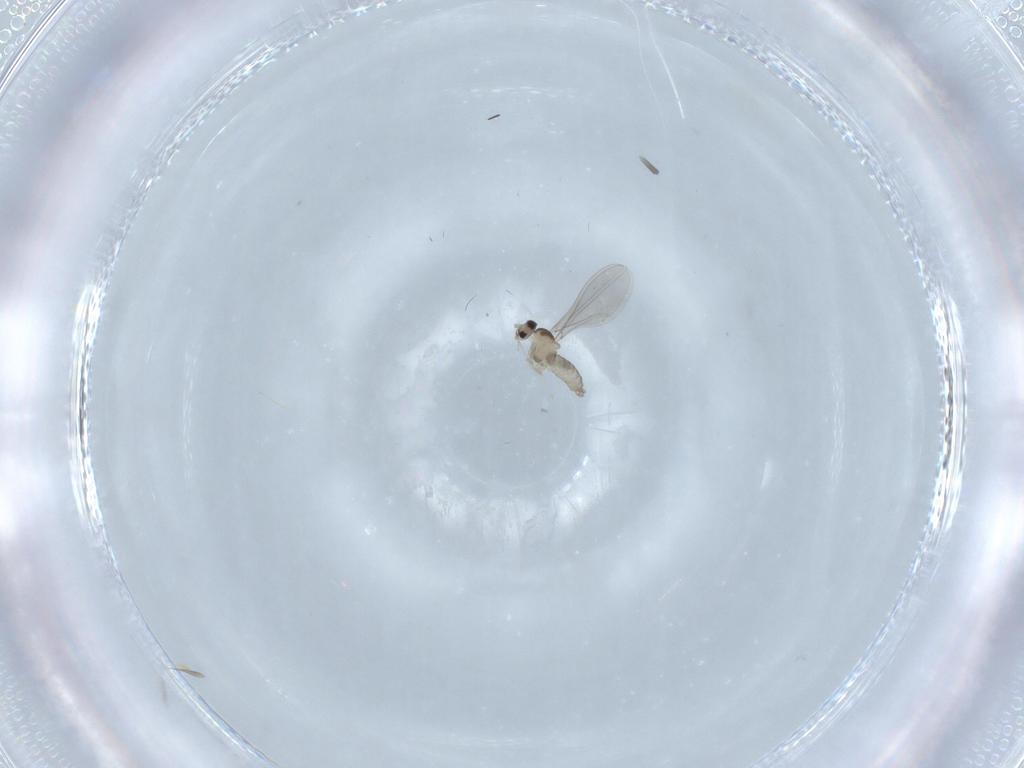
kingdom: Animalia
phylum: Arthropoda
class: Insecta
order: Diptera
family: Cecidomyiidae
